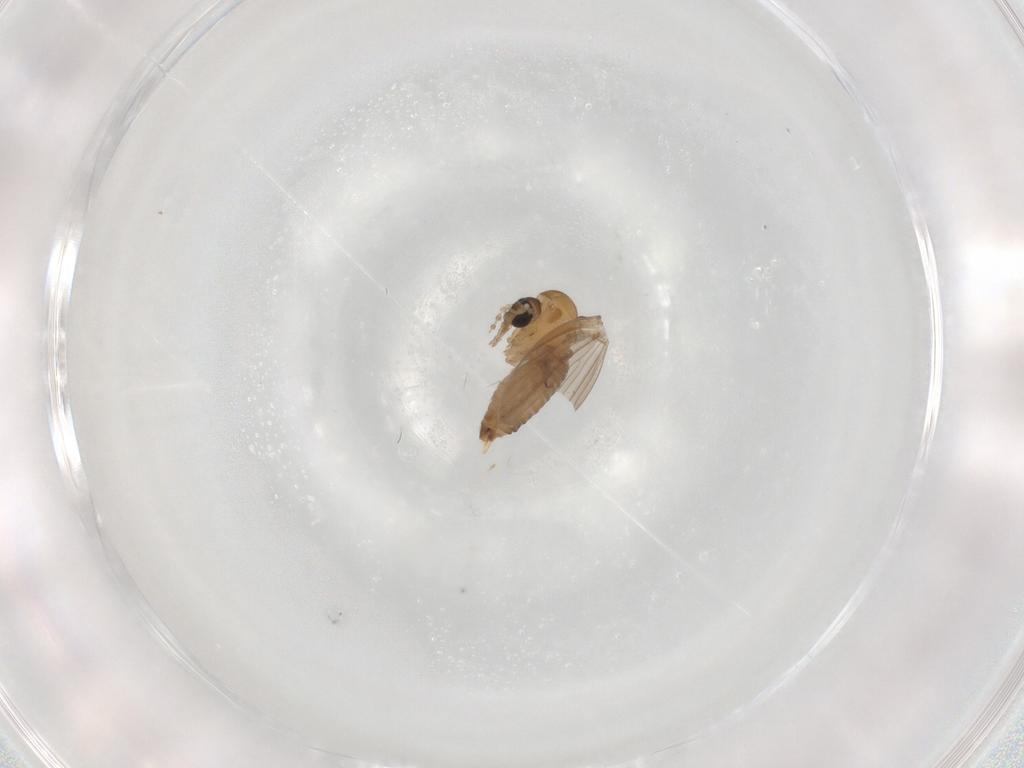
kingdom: Animalia
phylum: Arthropoda
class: Insecta
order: Diptera
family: Psychodidae
